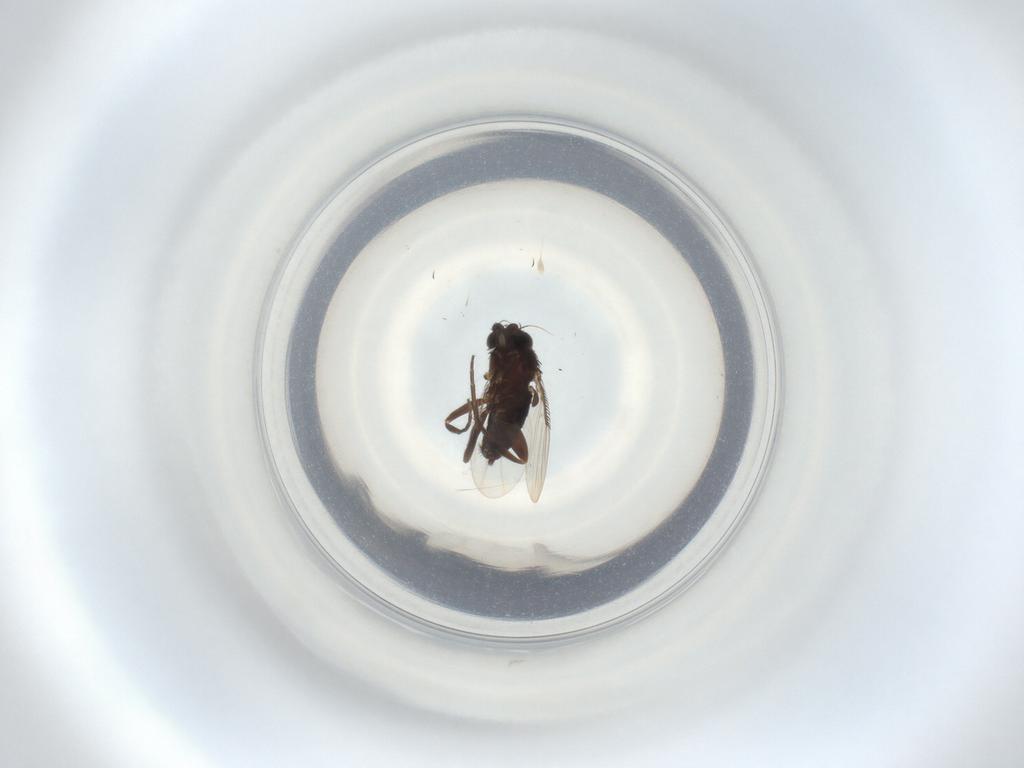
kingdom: Animalia
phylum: Arthropoda
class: Insecta
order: Diptera
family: Phoridae
